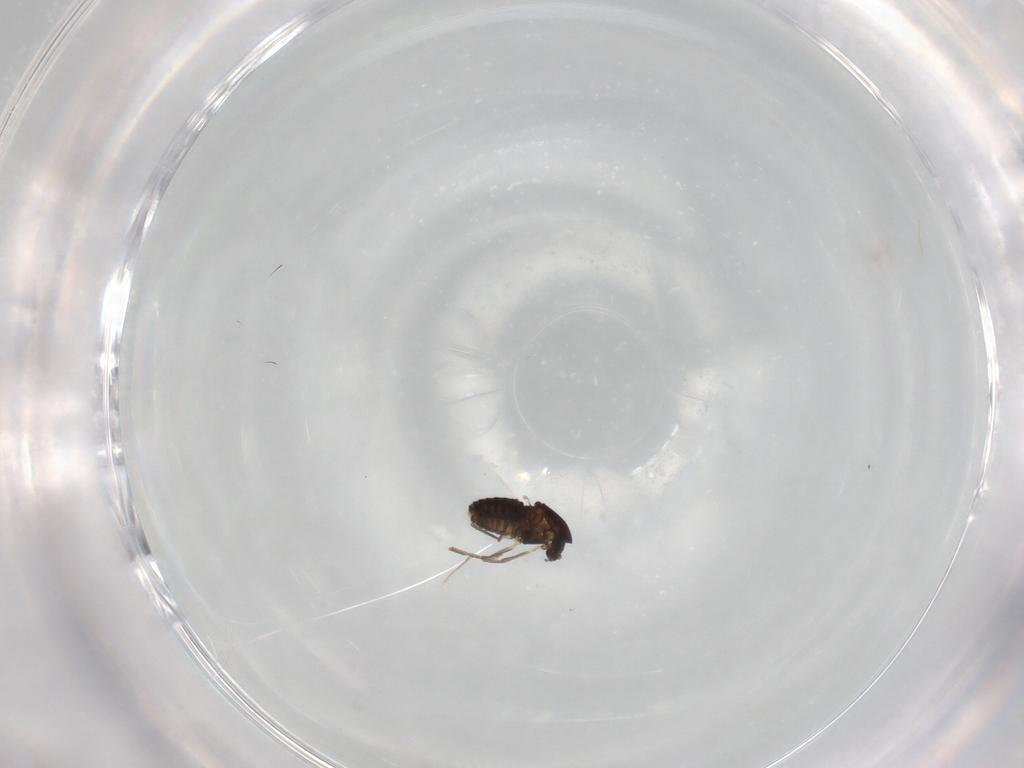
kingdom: Animalia
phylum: Arthropoda
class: Insecta
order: Diptera
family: Chironomidae
